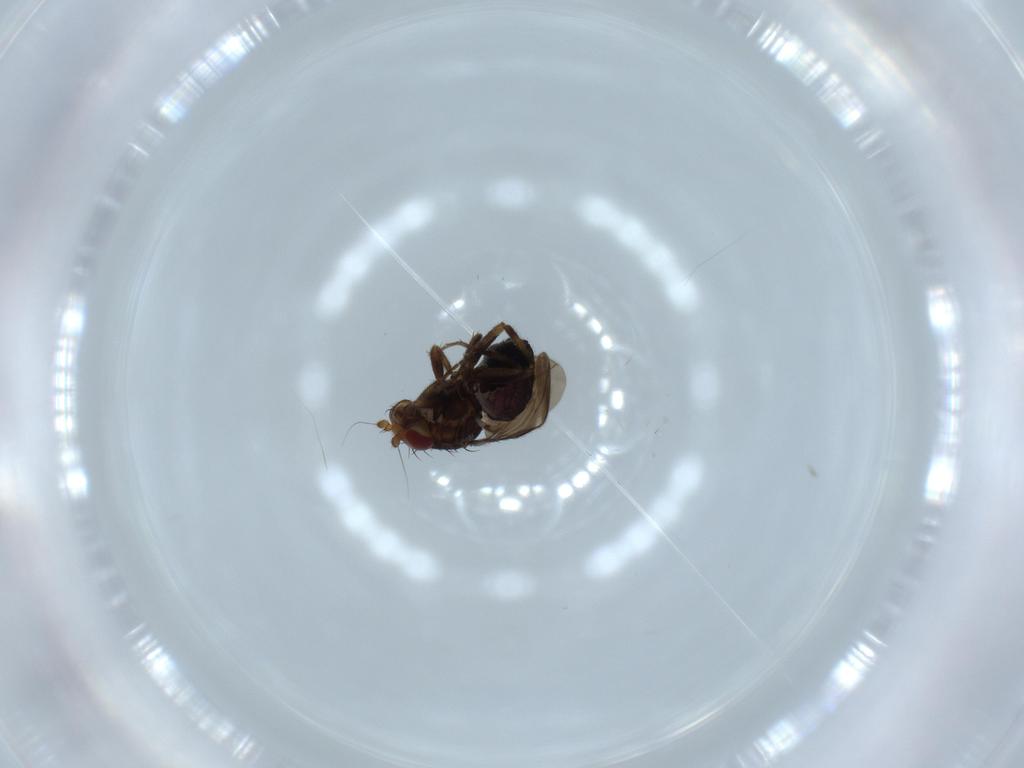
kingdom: Animalia
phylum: Arthropoda
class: Insecta
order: Diptera
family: Sphaeroceridae
